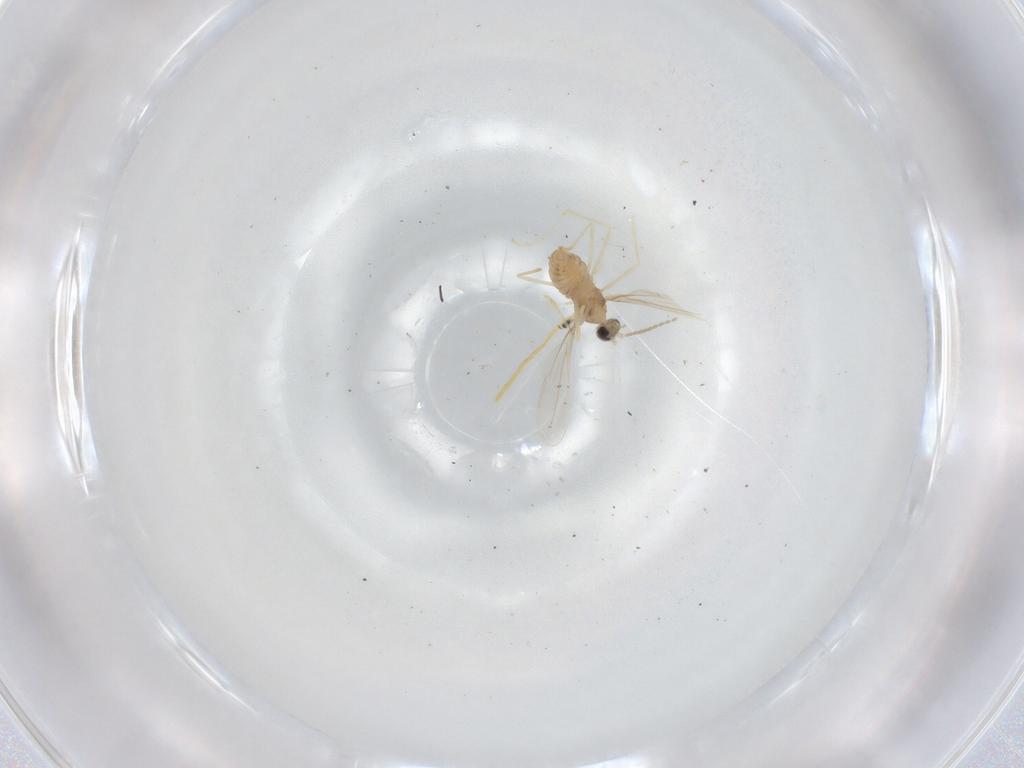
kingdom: Animalia
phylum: Arthropoda
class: Insecta
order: Diptera
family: Cecidomyiidae
